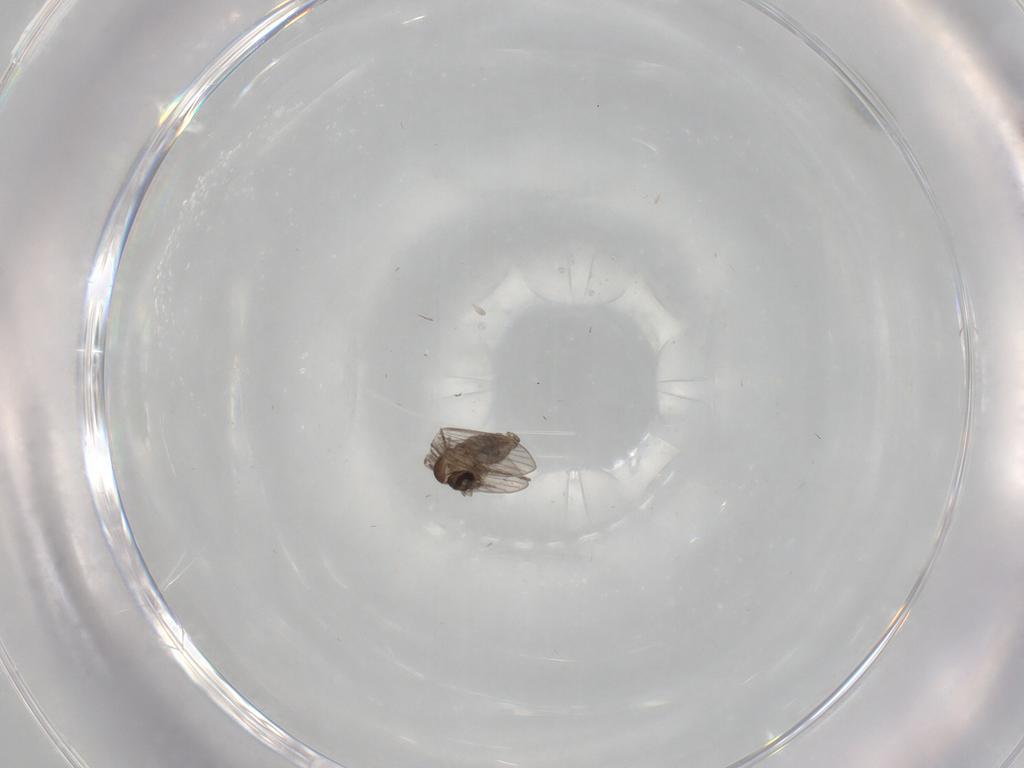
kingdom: Animalia
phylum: Arthropoda
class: Insecta
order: Diptera
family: Psychodidae
